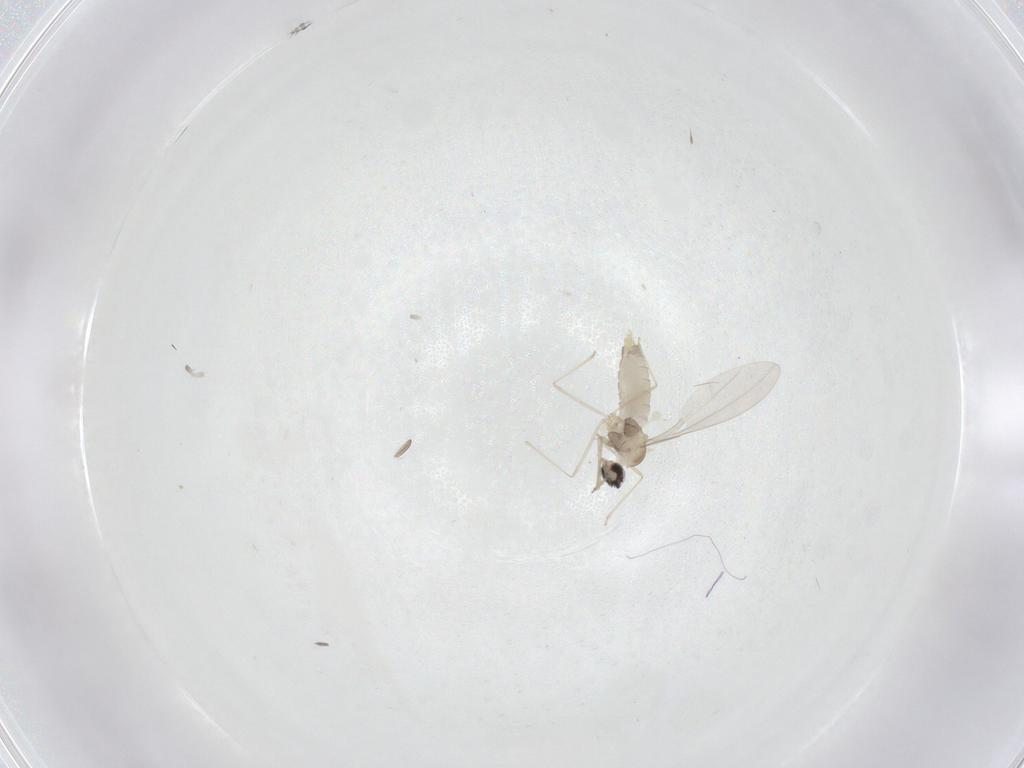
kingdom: Animalia
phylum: Arthropoda
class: Insecta
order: Diptera
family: Cecidomyiidae
